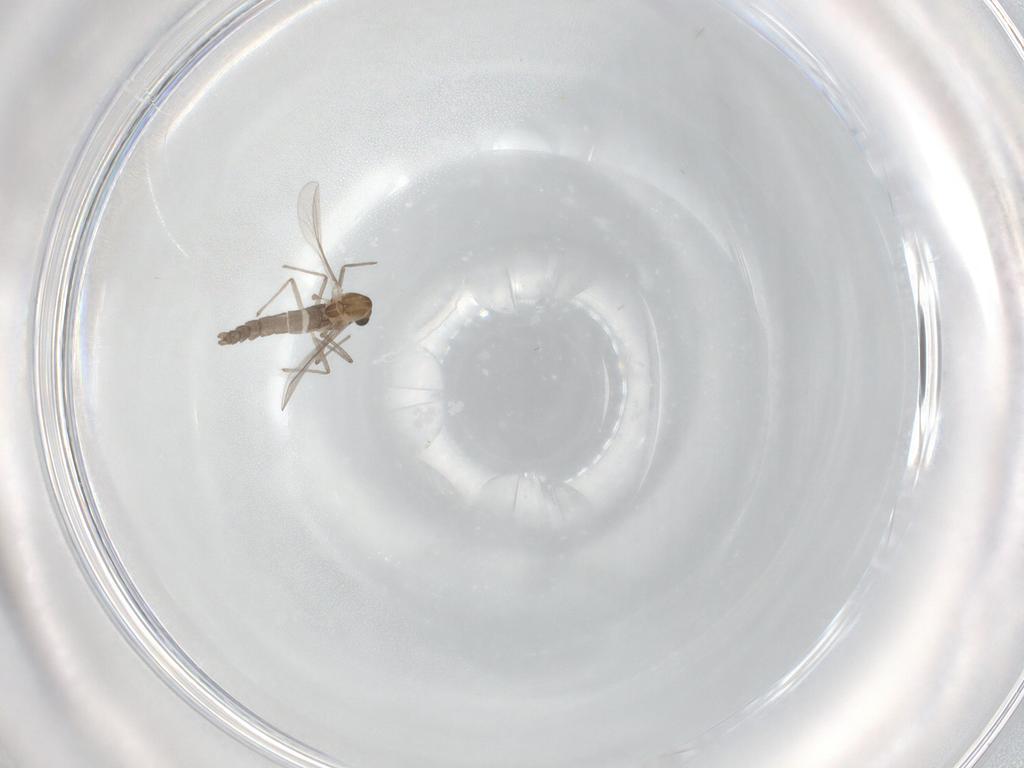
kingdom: Animalia
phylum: Arthropoda
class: Insecta
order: Diptera
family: Chironomidae
